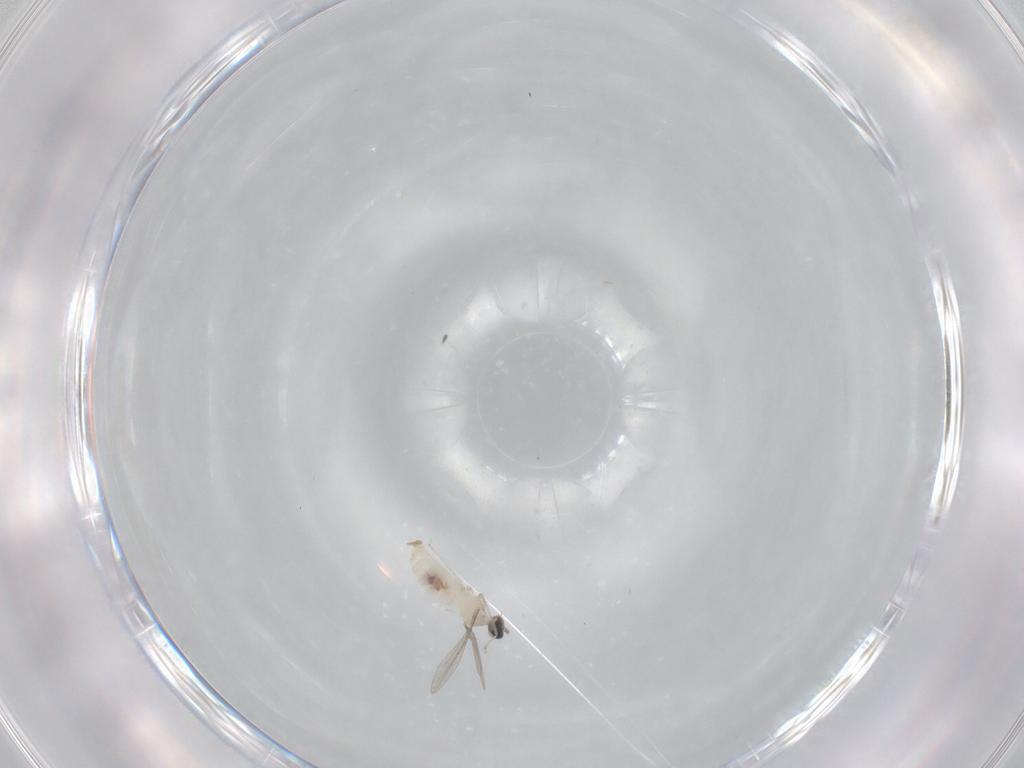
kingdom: Animalia
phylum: Arthropoda
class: Insecta
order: Diptera
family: Cecidomyiidae
